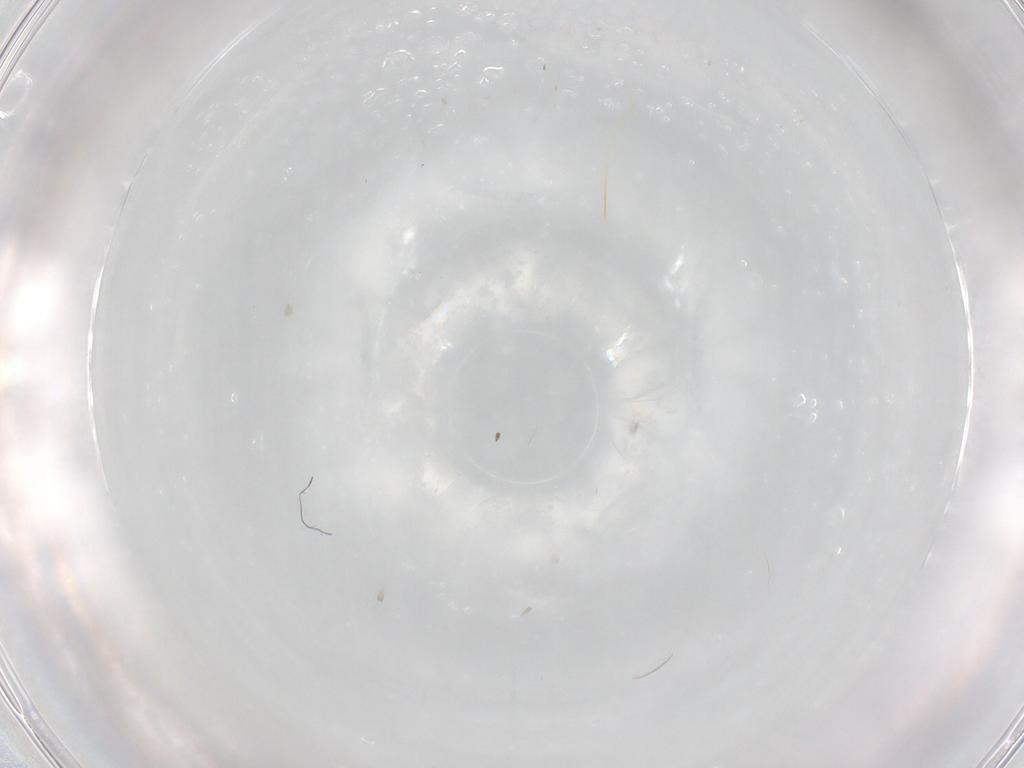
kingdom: Animalia
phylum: Arthropoda
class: Insecta
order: Diptera
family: Cecidomyiidae
